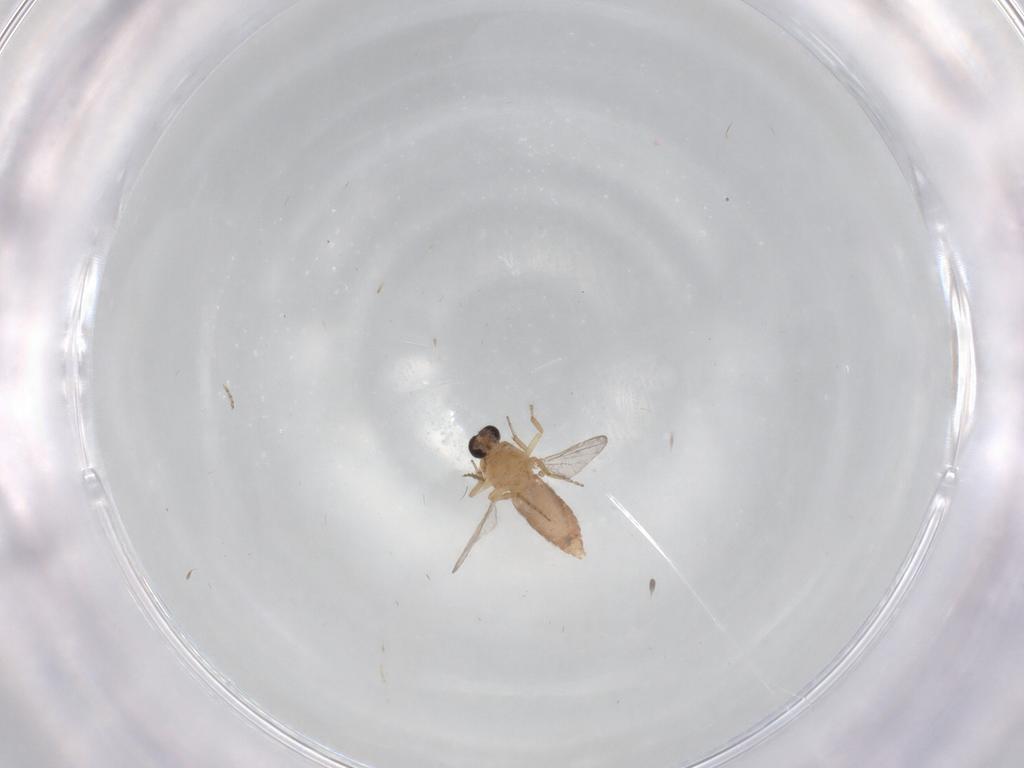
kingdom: Animalia
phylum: Arthropoda
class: Insecta
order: Diptera
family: Ceratopogonidae
